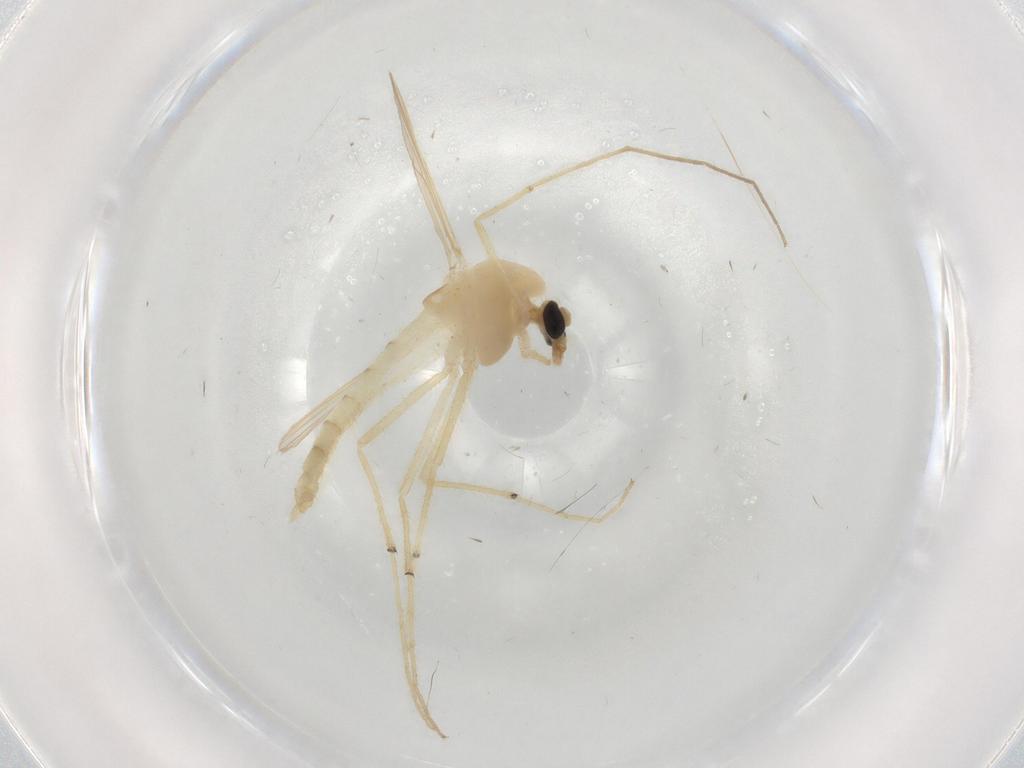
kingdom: Animalia
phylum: Arthropoda
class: Insecta
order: Diptera
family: Chironomidae
